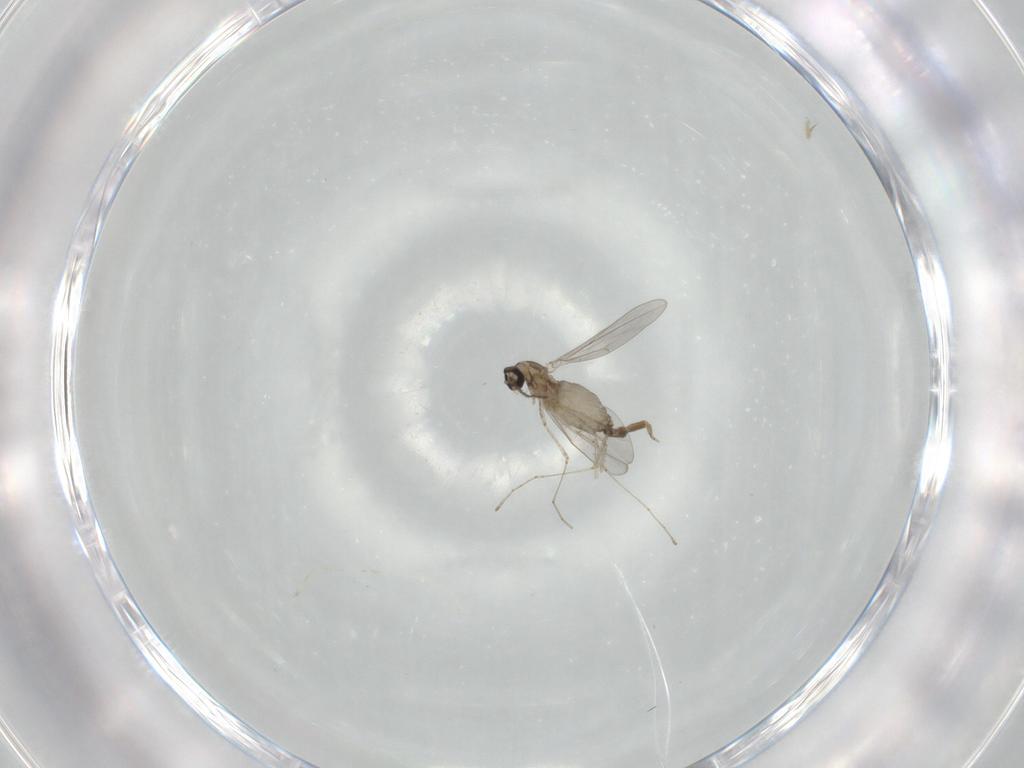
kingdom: Animalia
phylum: Arthropoda
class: Insecta
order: Diptera
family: Cecidomyiidae
